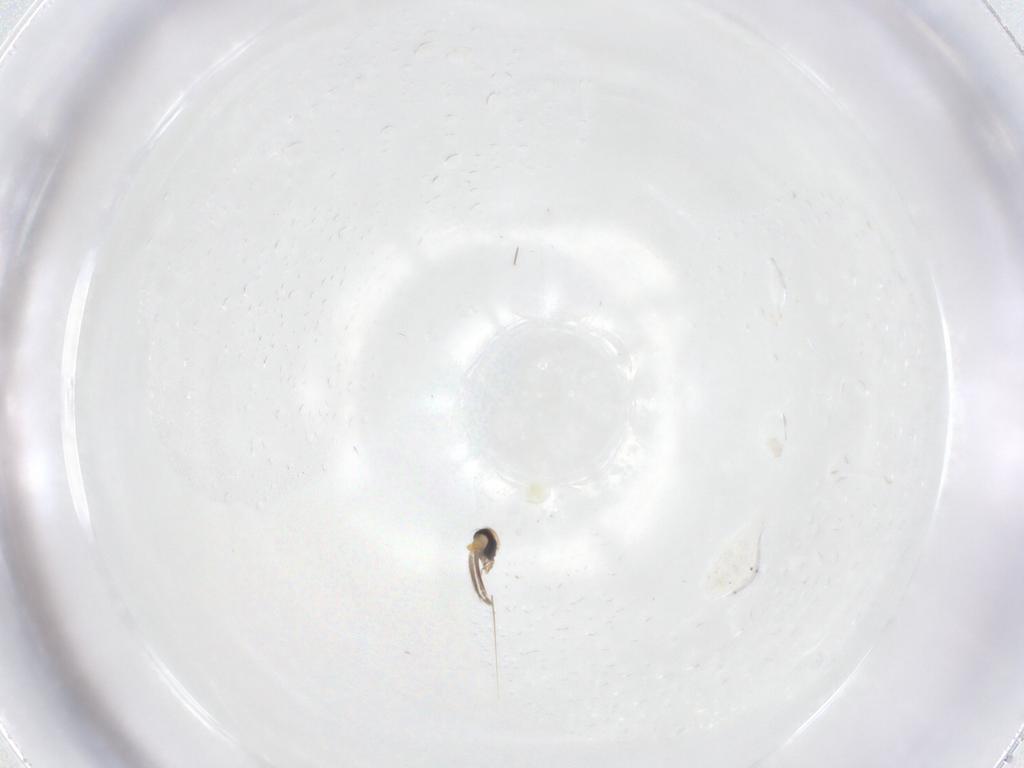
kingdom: Animalia
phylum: Arthropoda
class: Insecta
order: Diptera
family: Ceratopogonidae
